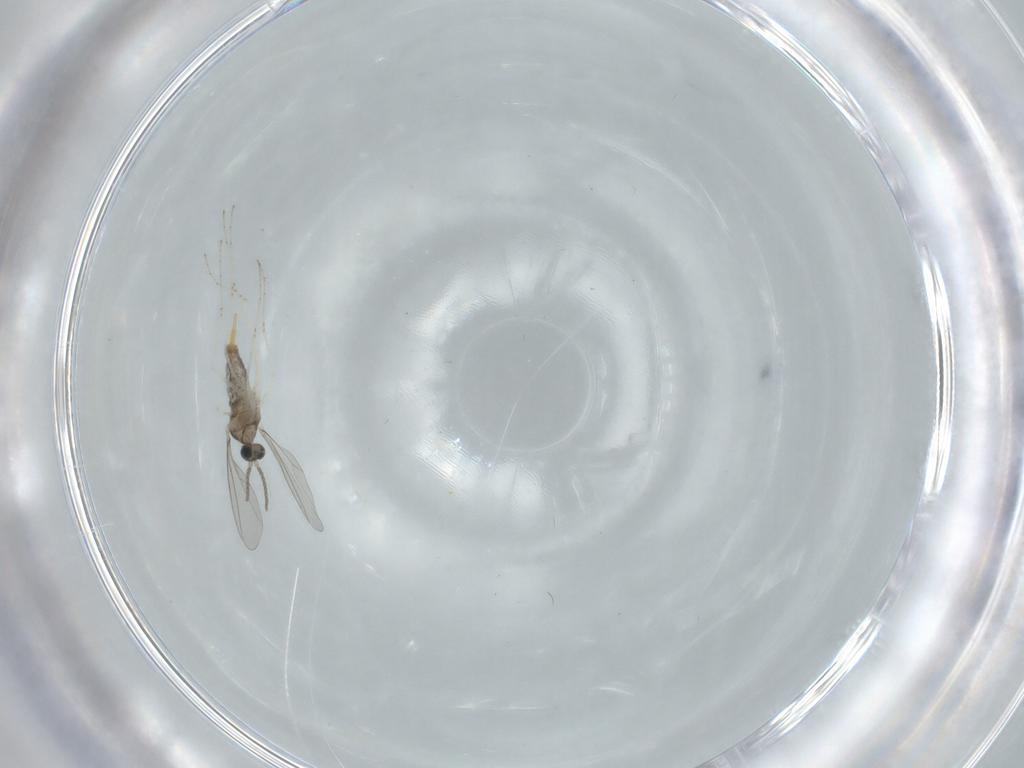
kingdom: Animalia
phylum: Arthropoda
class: Insecta
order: Diptera
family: Cecidomyiidae
